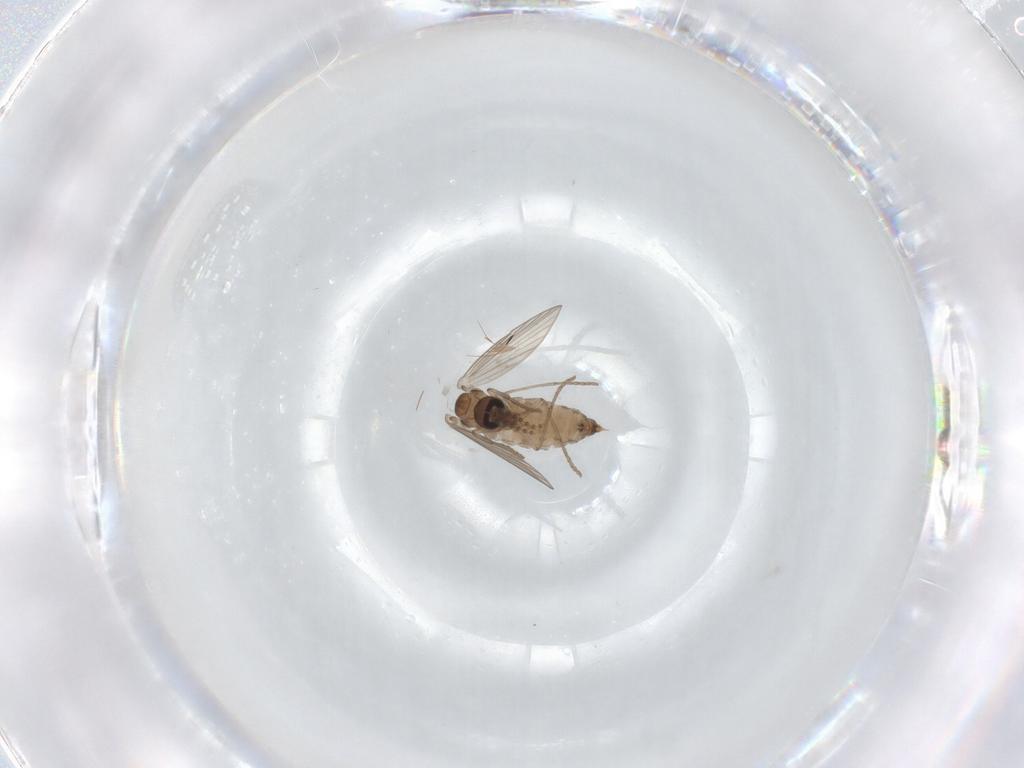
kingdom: Animalia
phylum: Arthropoda
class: Insecta
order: Diptera
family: Psychodidae
